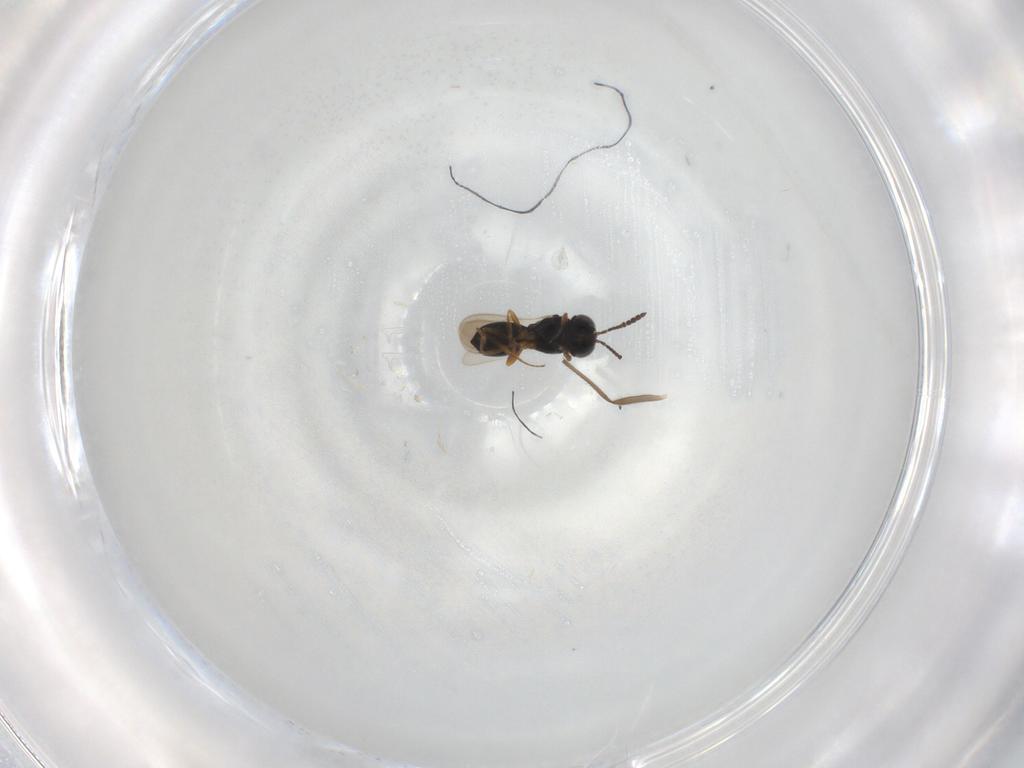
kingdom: Animalia
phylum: Arthropoda
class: Insecta
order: Hymenoptera
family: Scelionidae
